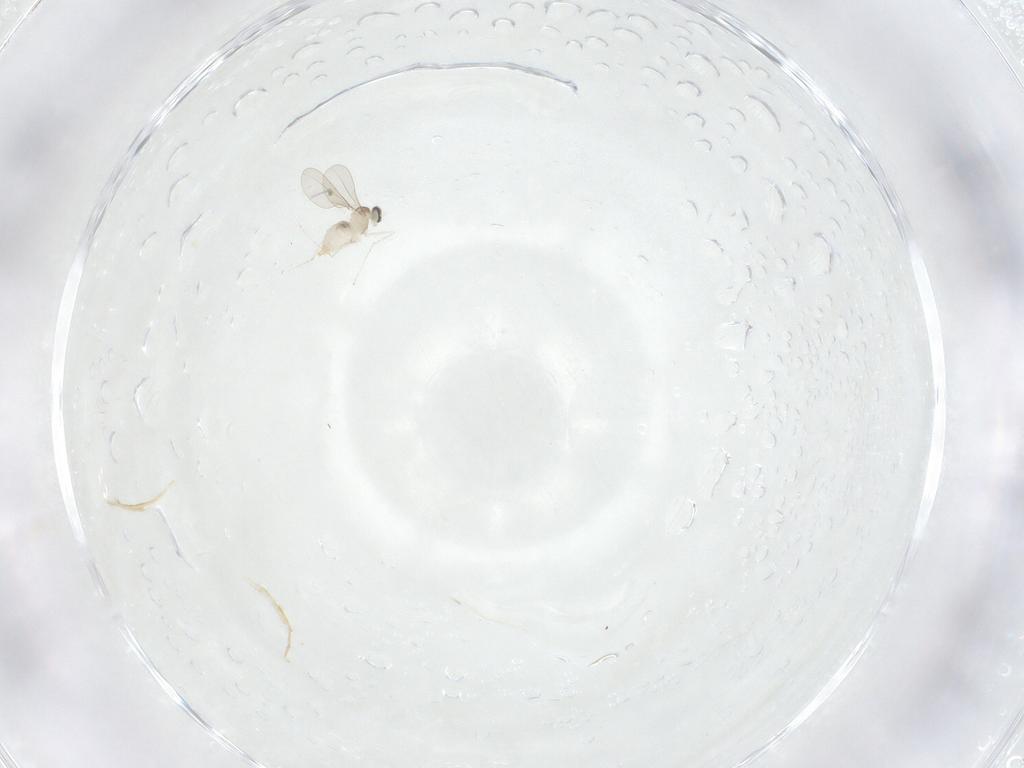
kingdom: Animalia
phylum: Arthropoda
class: Insecta
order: Diptera
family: Cecidomyiidae
